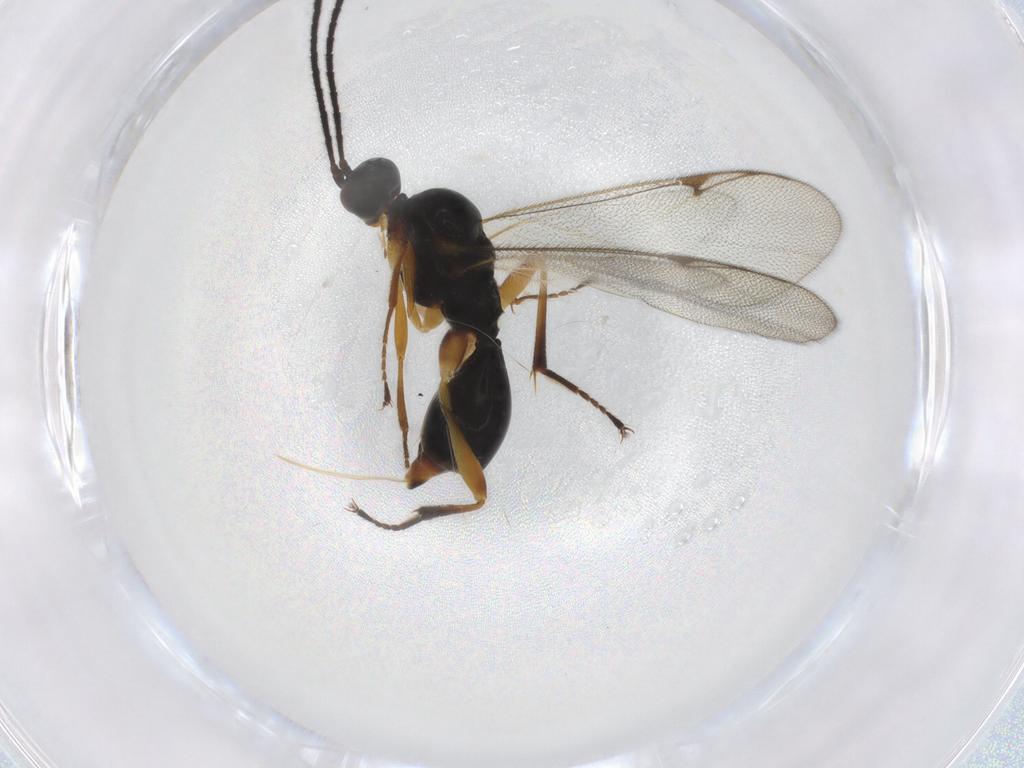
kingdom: Animalia
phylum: Arthropoda
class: Insecta
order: Hymenoptera
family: Proctotrupidae
